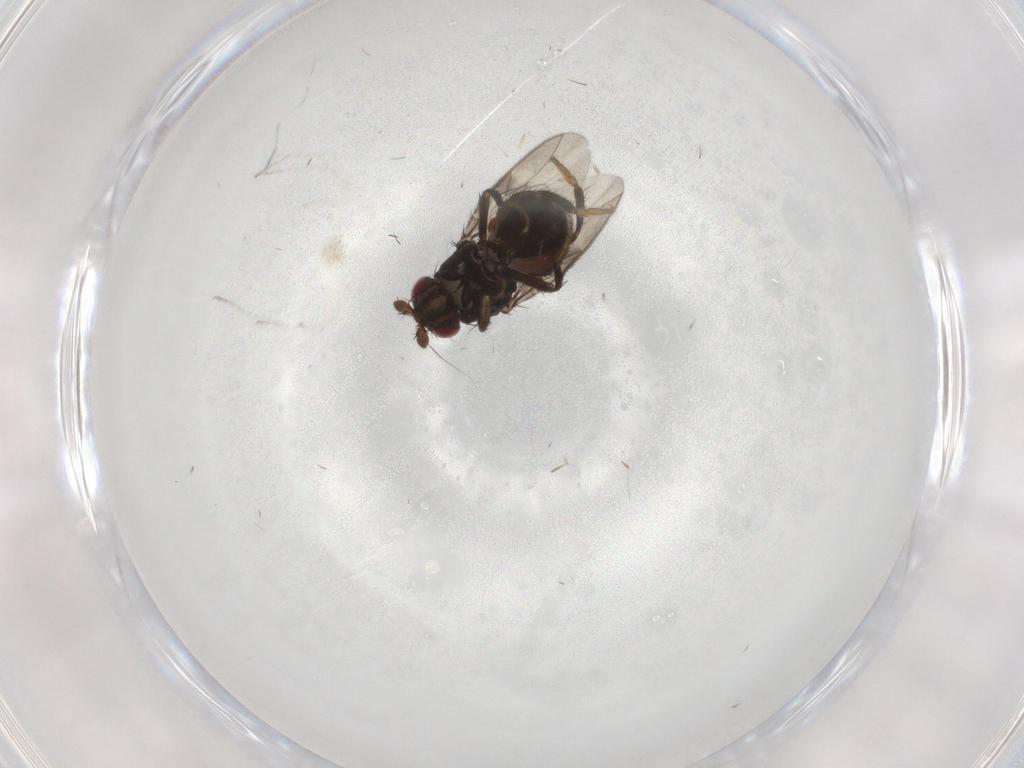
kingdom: Animalia
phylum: Arthropoda
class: Insecta
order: Diptera
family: Sphaeroceridae
